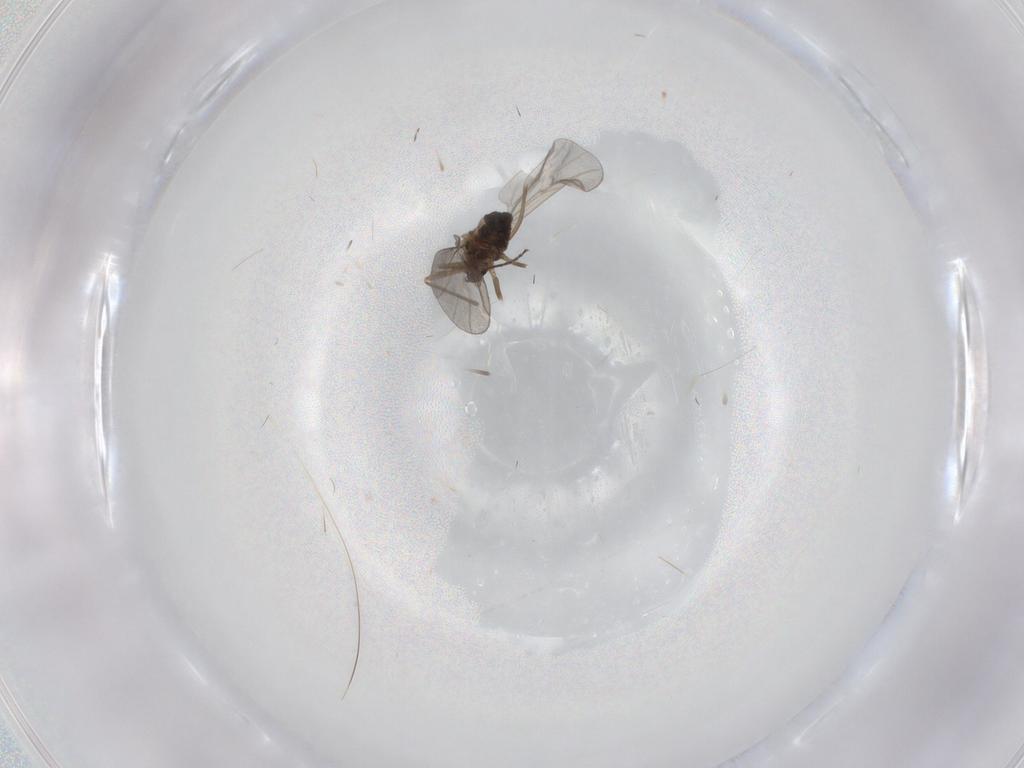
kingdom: Animalia
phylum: Arthropoda
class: Insecta
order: Diptera
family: Cecidomyiidae
